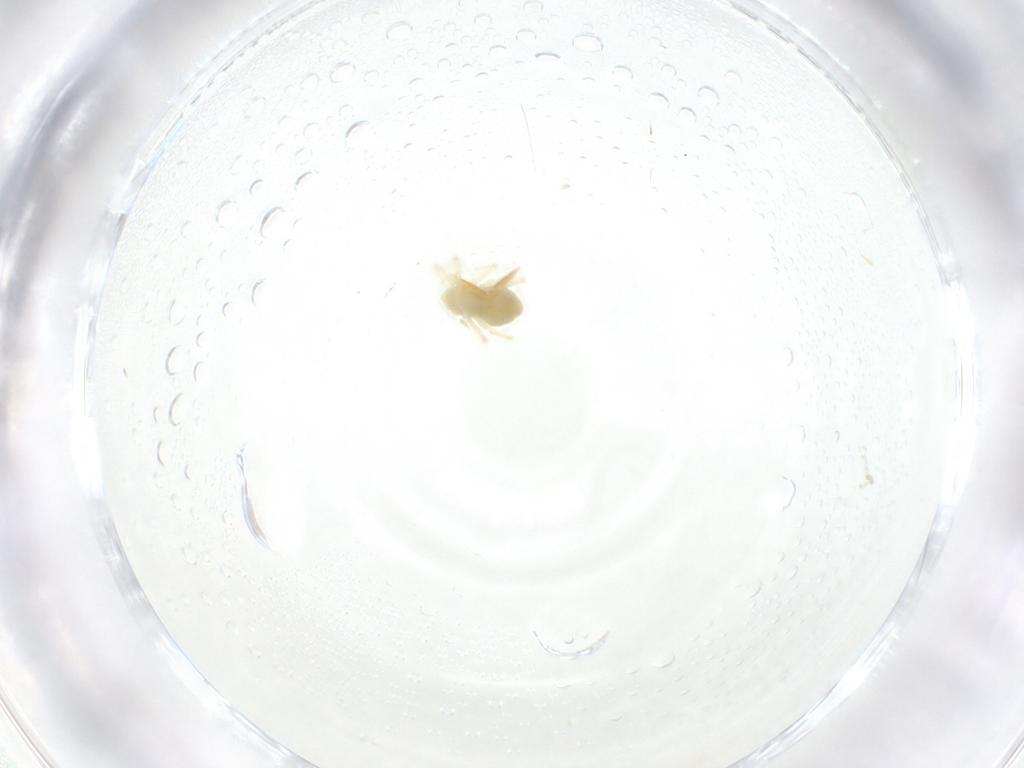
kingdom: Animalia
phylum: Arthropoda
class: Arachnida
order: Trombidiformes
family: Anystidae
